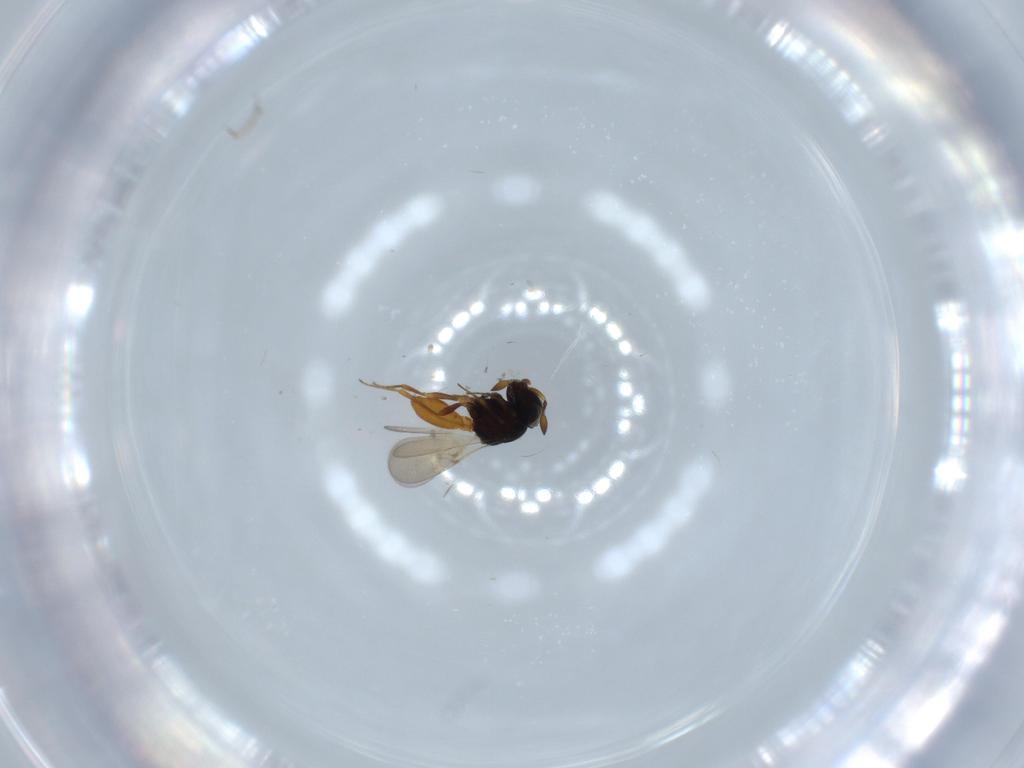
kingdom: Animalia
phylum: Arthropoda
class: Insecta
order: Hymenoptera
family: Scelionidae
